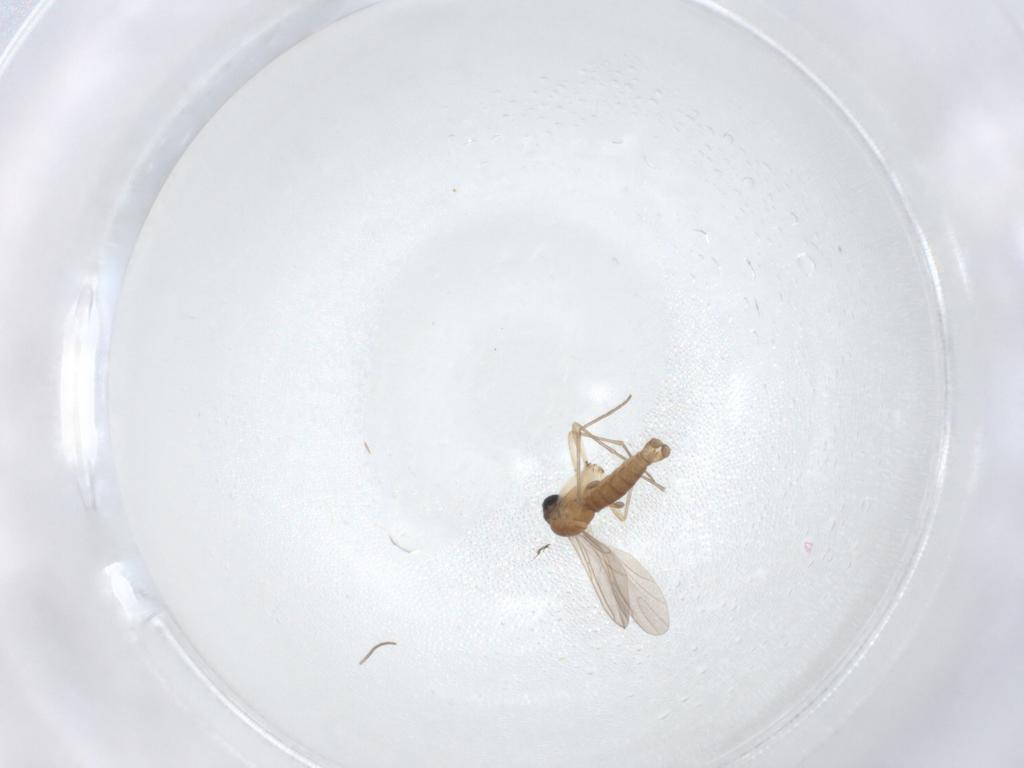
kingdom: Animalia
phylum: Arthropoda
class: Insecta
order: Diptera
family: Sciaridae
